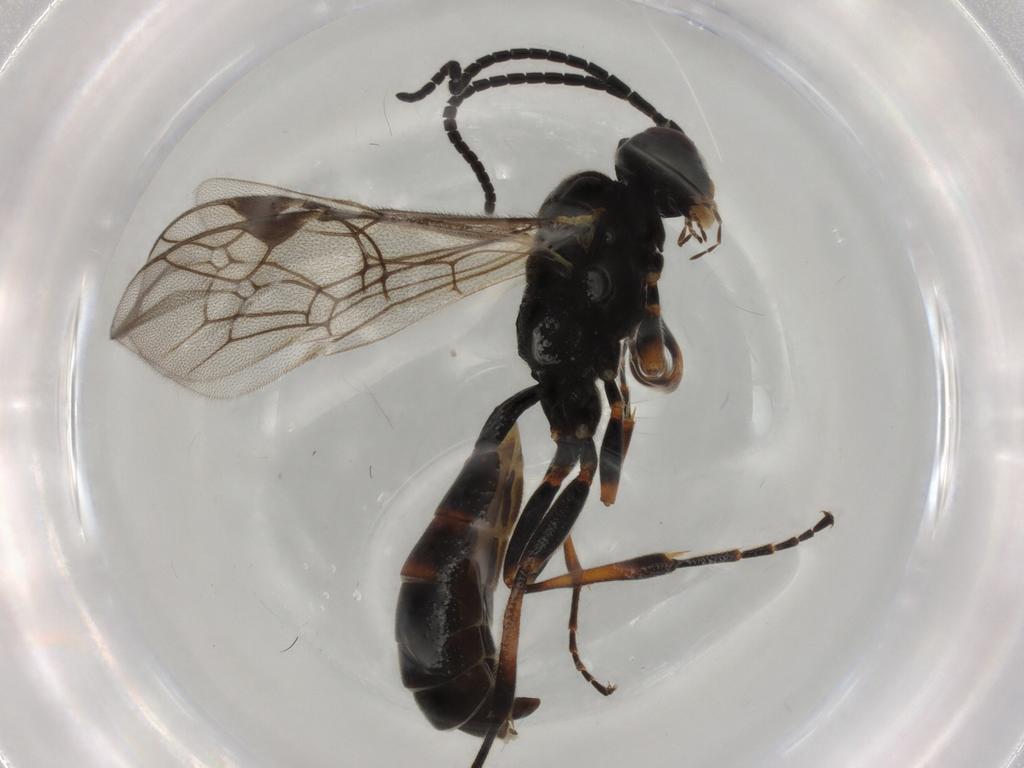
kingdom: Animalia
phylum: Arthropoda
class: Insecta
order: Hymenoptera
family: Ichneumonidae
